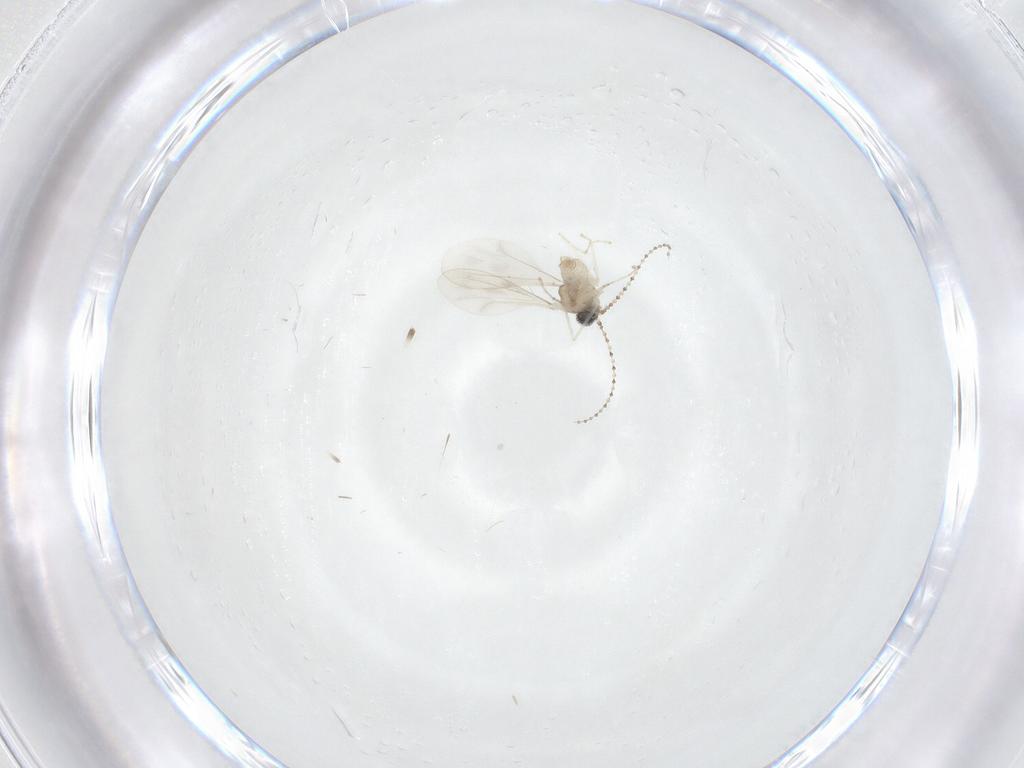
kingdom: Animalia
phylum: Arthropoda
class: Insecta
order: Diptera
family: Cecidomyiidae
